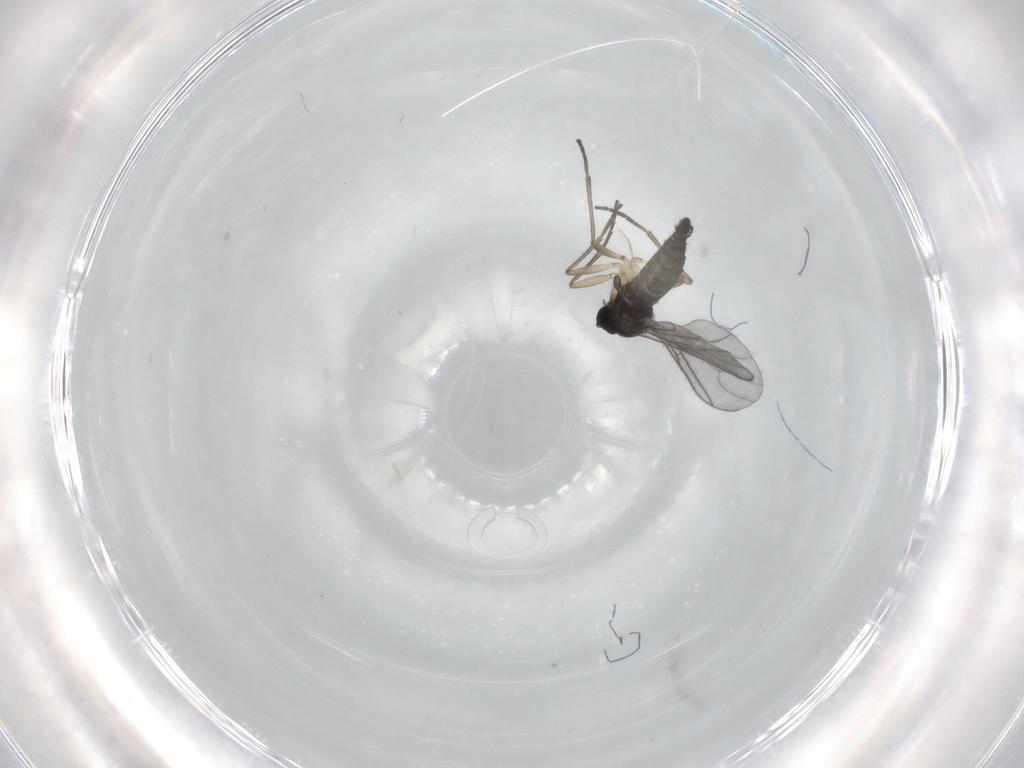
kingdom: Animalia
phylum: Arthropoda
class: Insecta
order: Diptera
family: Sciaridae
